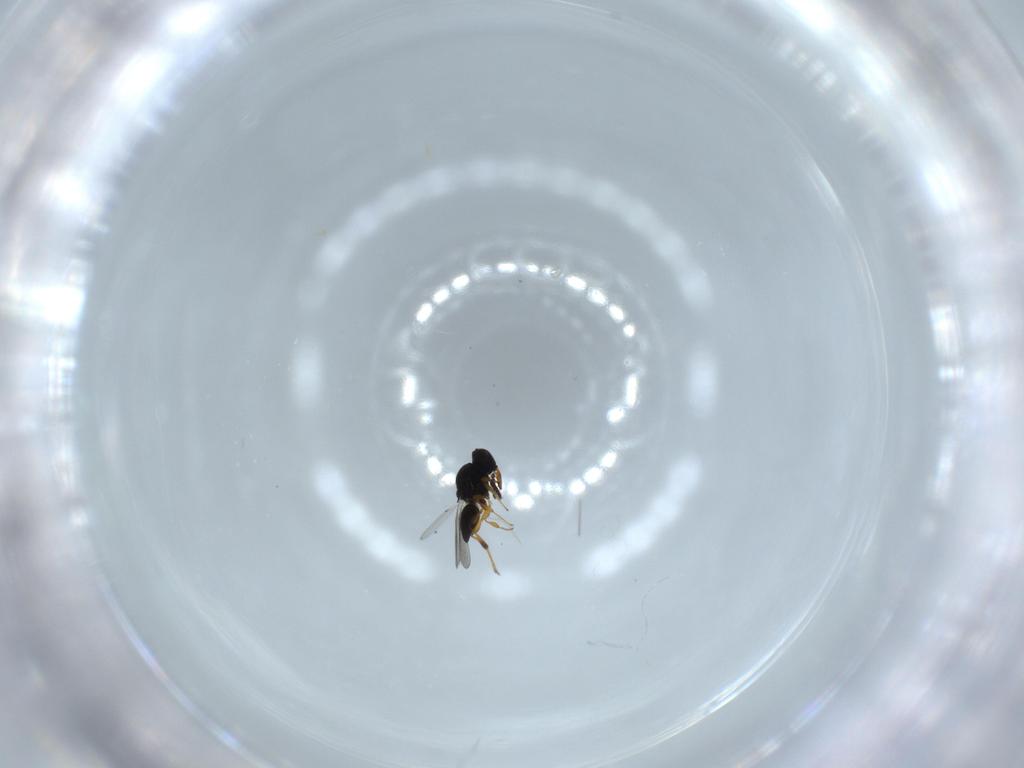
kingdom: Animalia
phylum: Arthropoda
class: Insecta
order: Hymenoptera
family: Platygastridae
